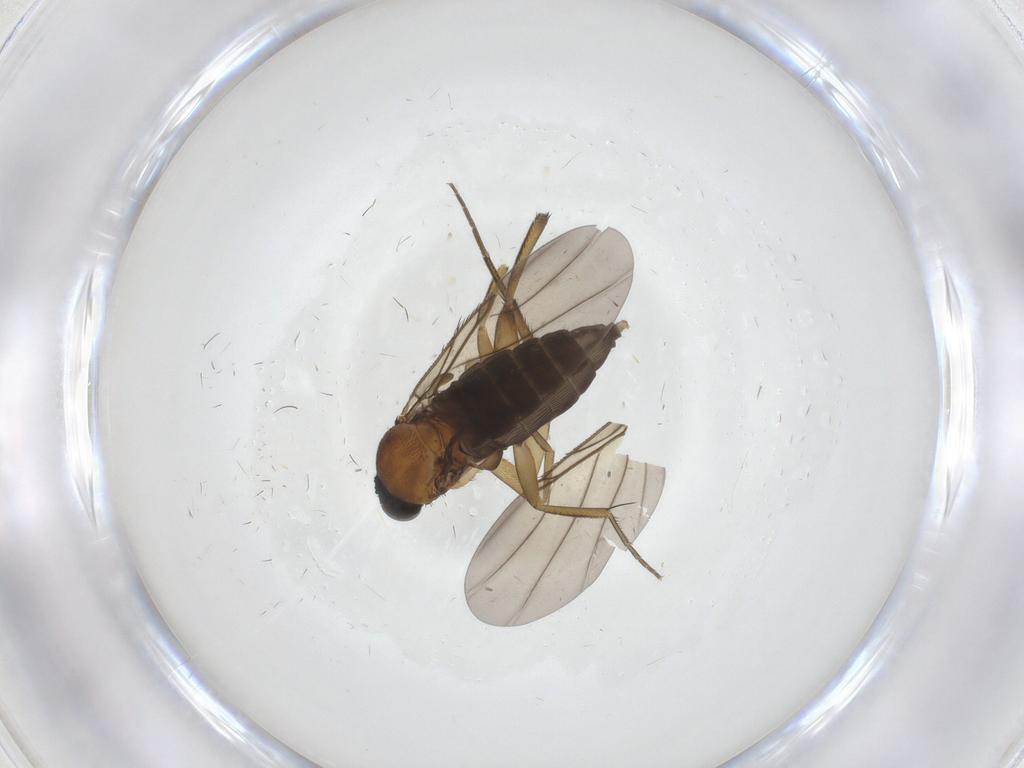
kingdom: Animalia
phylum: Arthropoda
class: Insecta
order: Diptera
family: Phoridae
